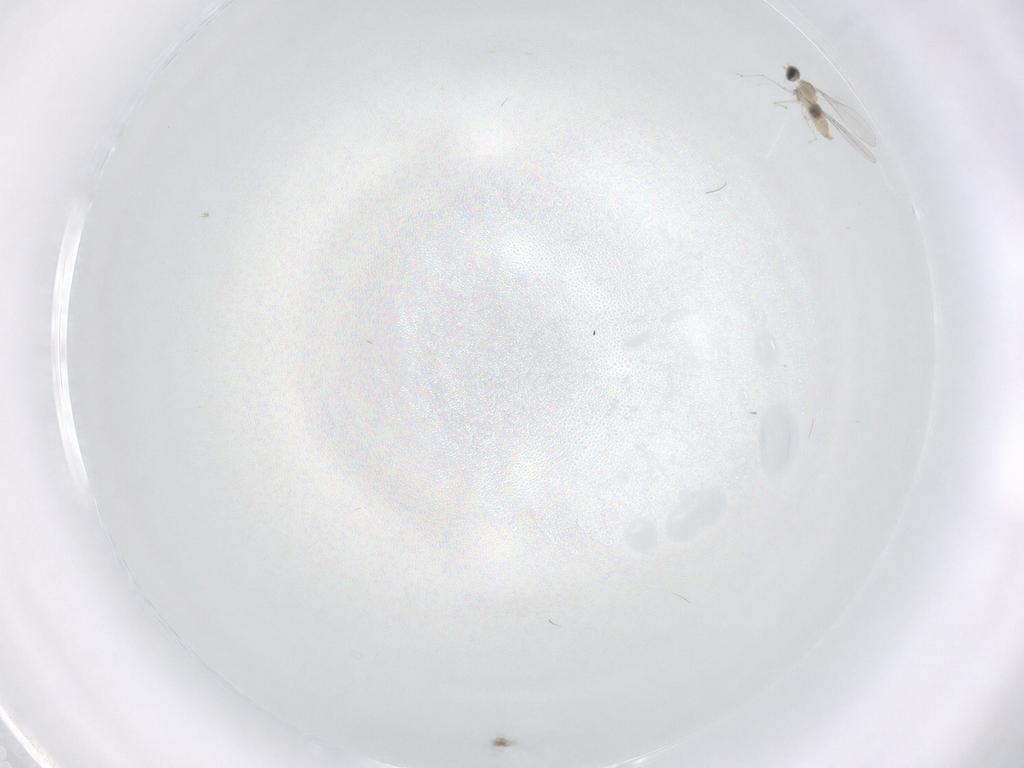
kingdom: Animalia
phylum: Arthropoda
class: Insecta
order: Diptera
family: Cecidomyiidae
